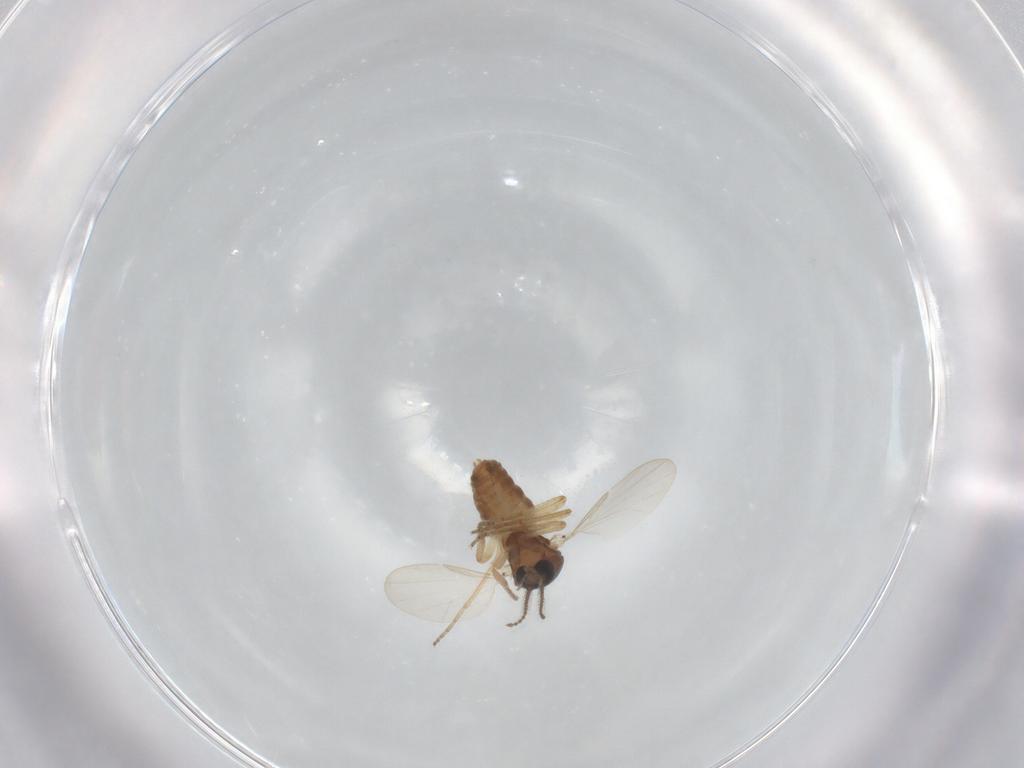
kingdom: Animalia
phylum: Arthropoda
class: Insecta
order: Diptera
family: Ceratopogonidae
